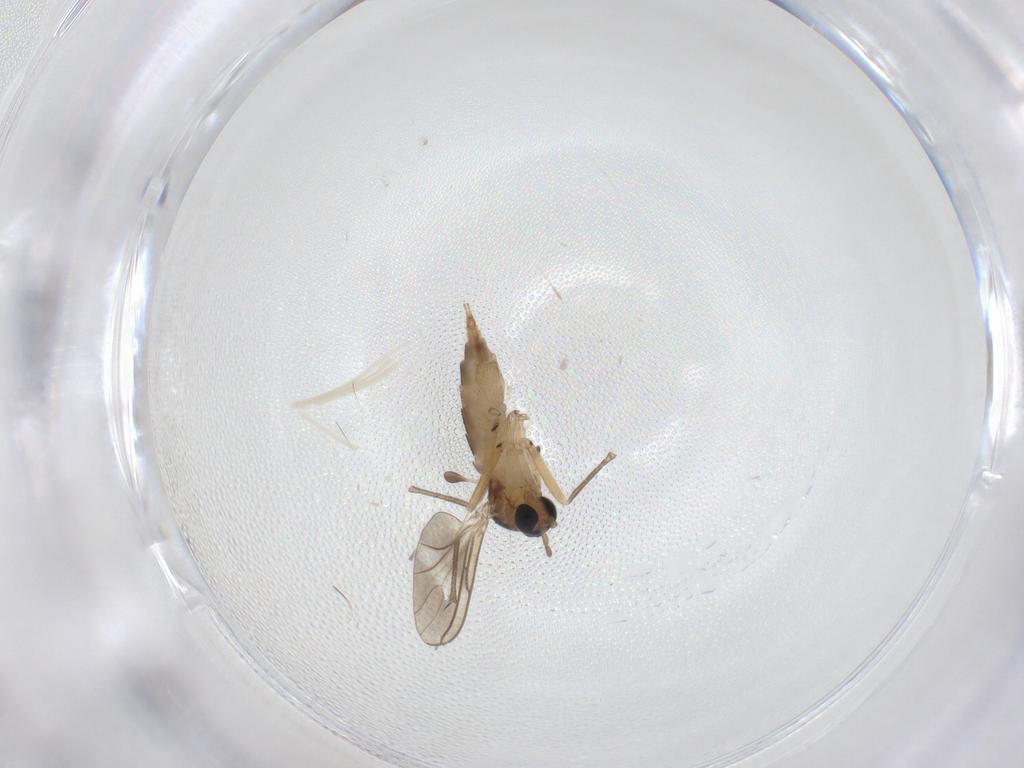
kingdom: Animalia
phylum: Arthropoda
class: Insecta
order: Diptera
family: Sciaridae
